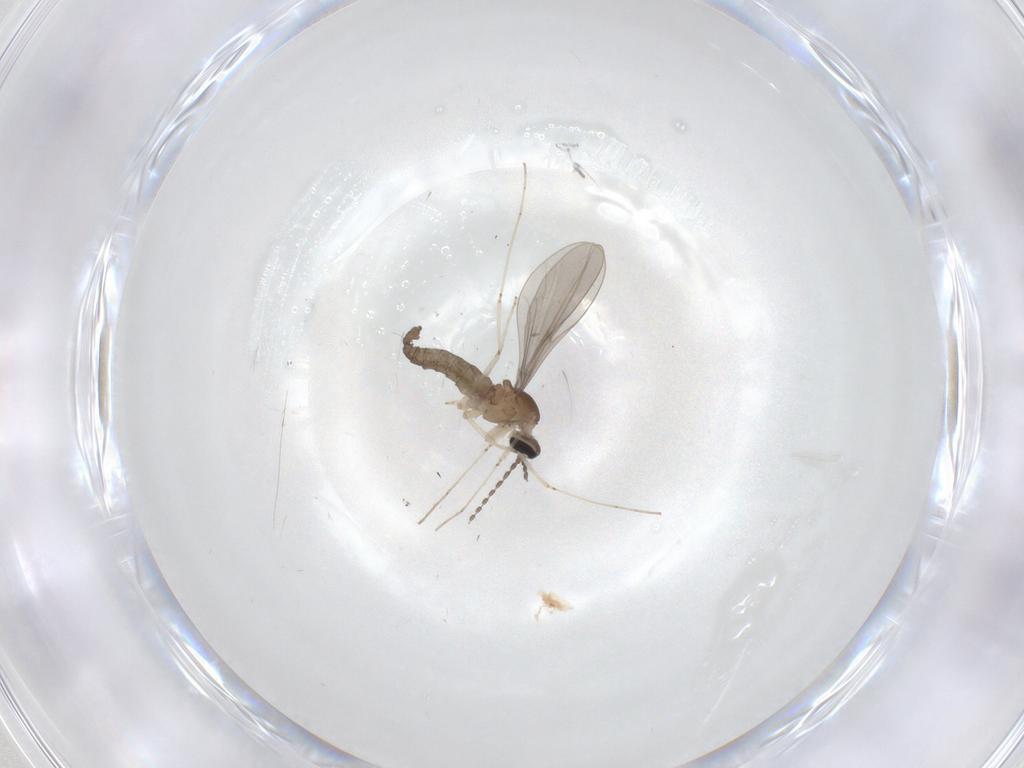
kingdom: Animalia
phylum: Arthropoda
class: Insecta
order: Diptera
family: Cecidomyiidae
